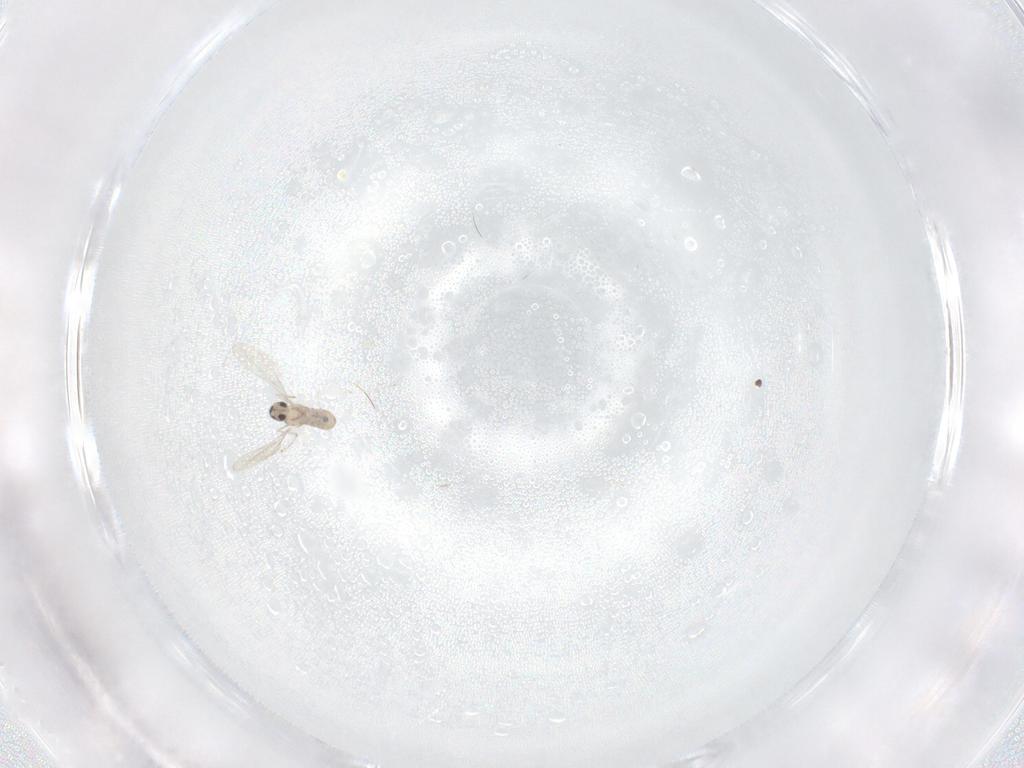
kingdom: Animalia
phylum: Arthropoda
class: Insecta
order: Diptera
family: Cecidomyiidae
